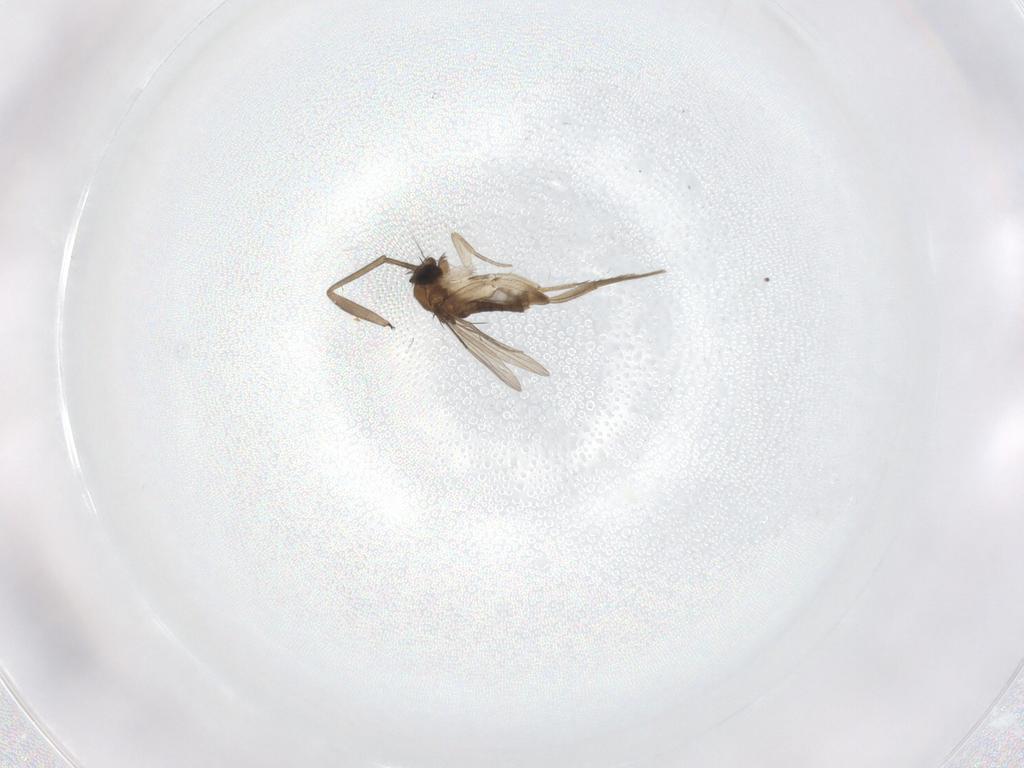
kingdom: Animalia
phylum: Arthropoda
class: Insecta
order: Diptera
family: Phoridae
